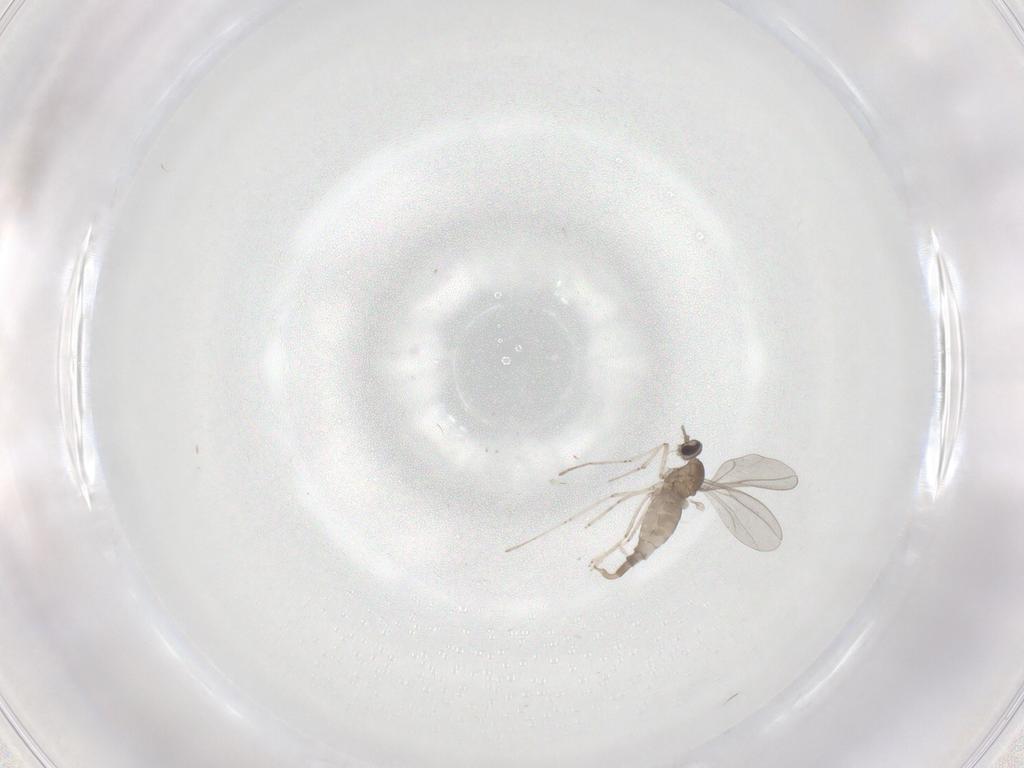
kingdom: Animalia
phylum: Arthropoda
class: Insecta
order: Diptera
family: Cecidomyiidae
